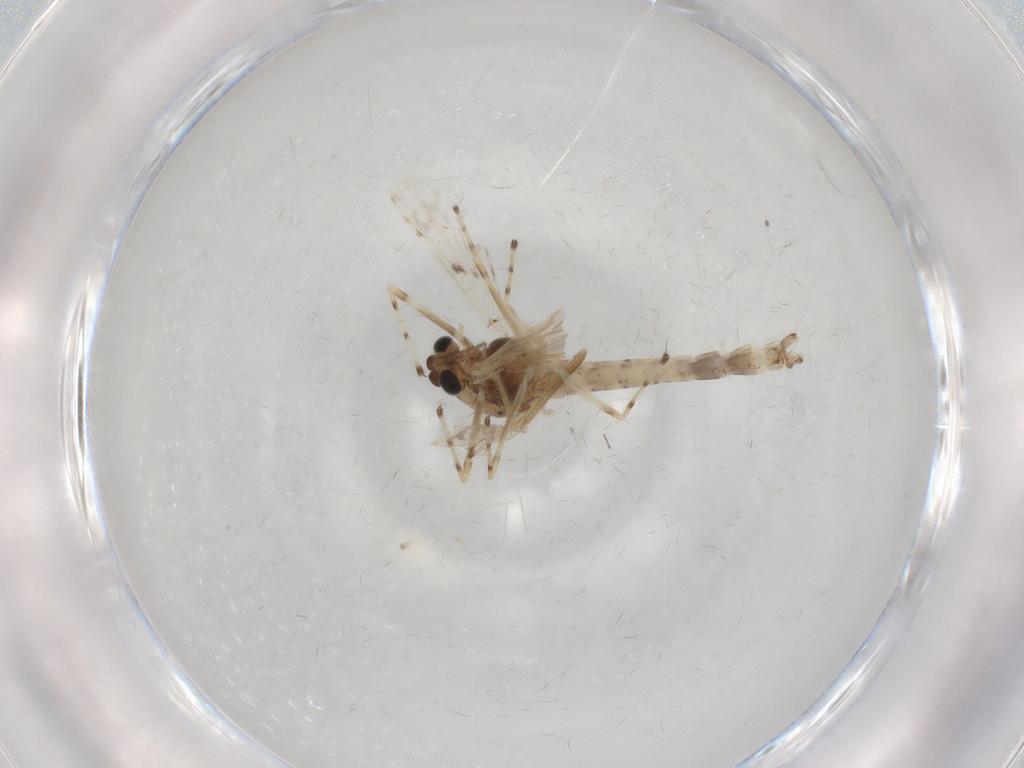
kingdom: Animalia
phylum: Arthropoda
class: Insecta
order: Diptera
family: Chironomidae
